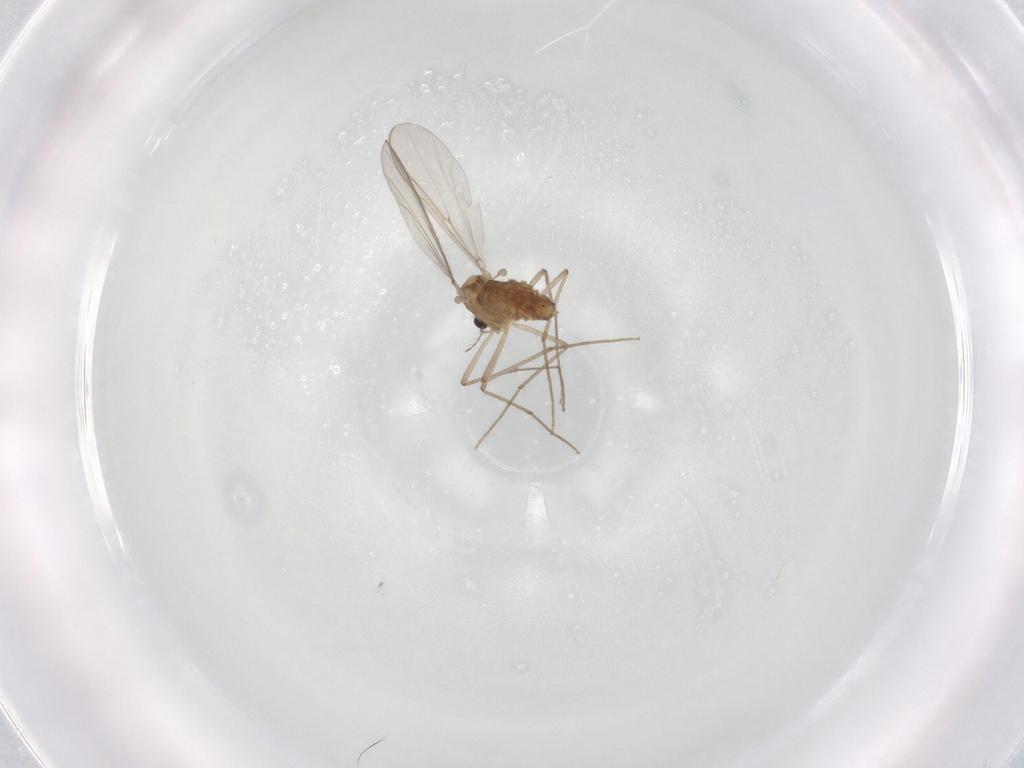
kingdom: Animalia
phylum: Arthropoda
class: Insecta
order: Diptera
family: Chironomidae
